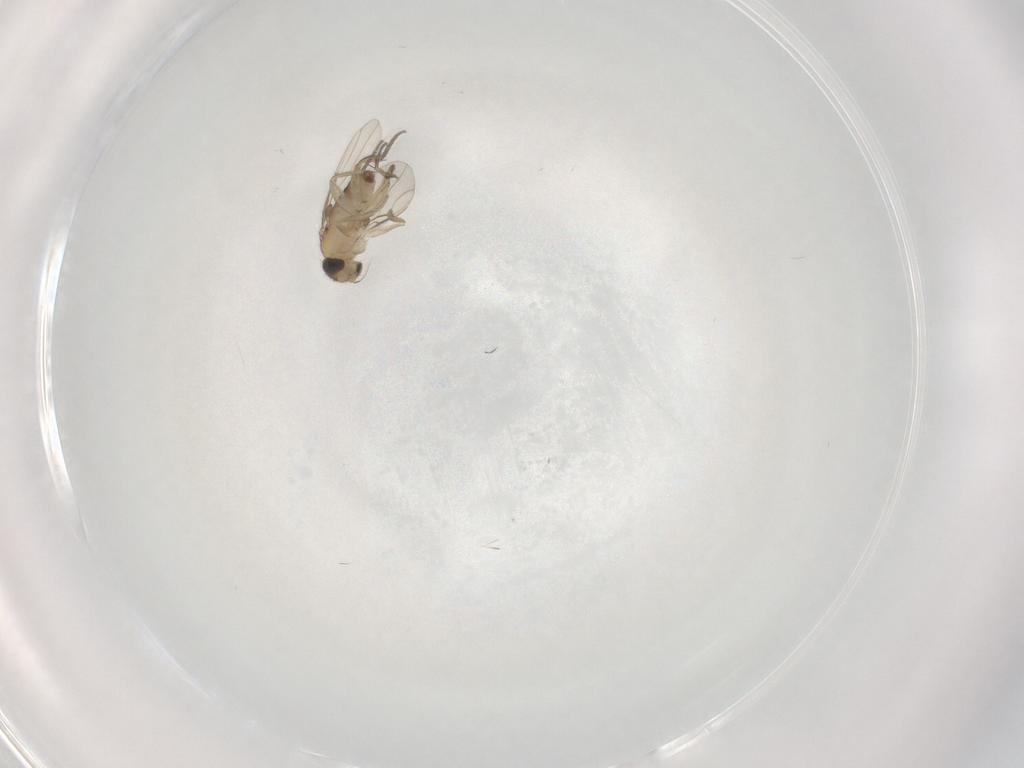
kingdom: Animalia
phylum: Arthropoda
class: Insecta
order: Diptera
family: Phoridae
